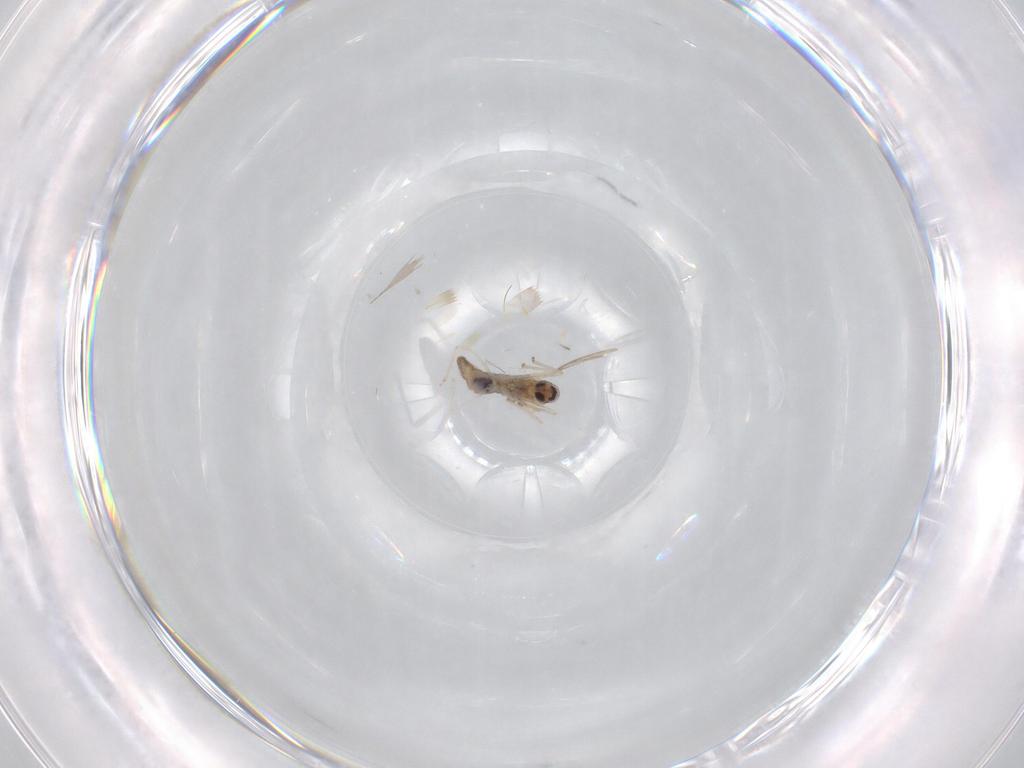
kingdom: Animalia
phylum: Arthropoda
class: Insecta
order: Diptera
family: Cecidomyiidae
